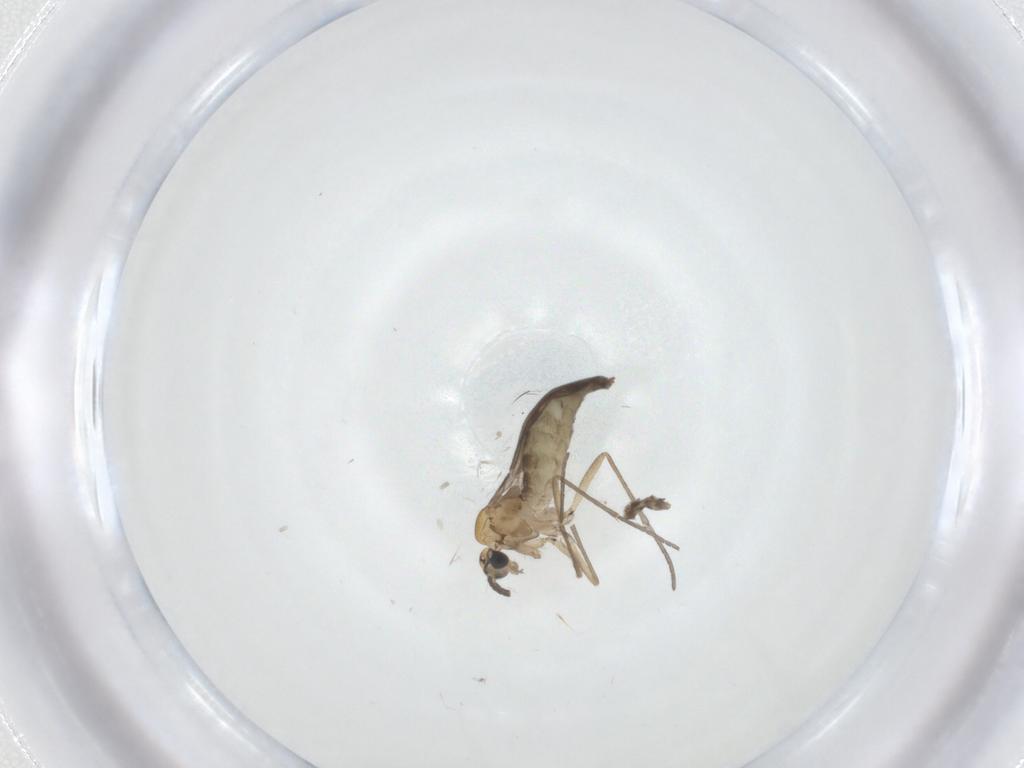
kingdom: Animalia
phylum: Arthropoda
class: Insecta
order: Diptera
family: Sciaridae
